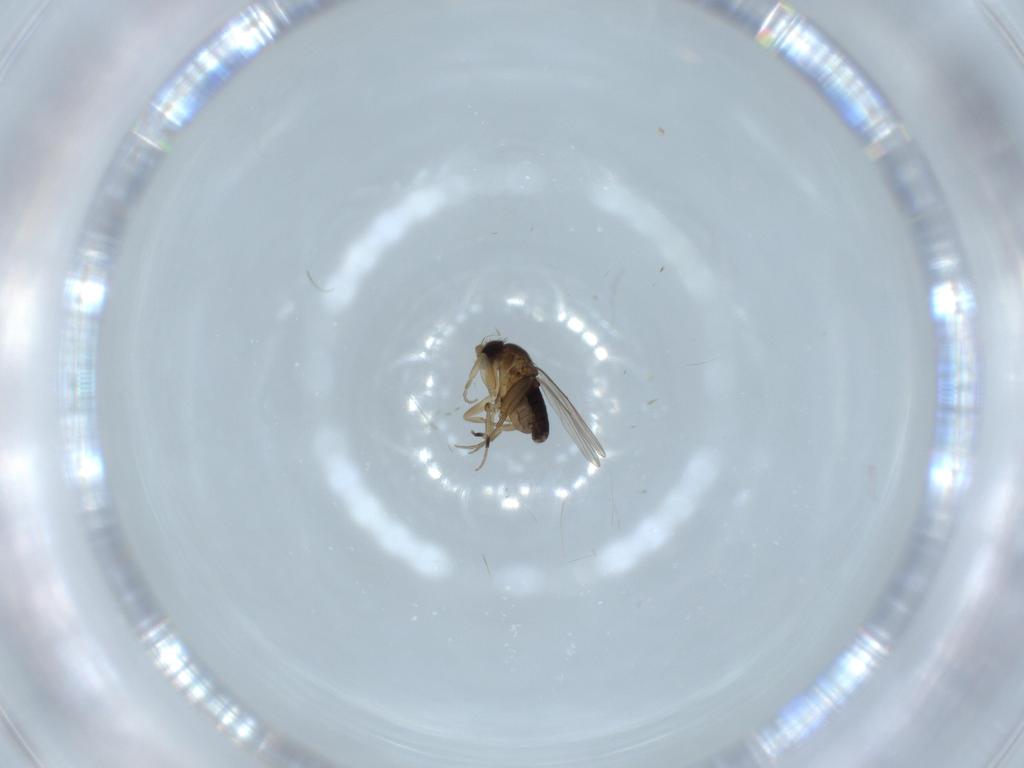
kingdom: Animalia
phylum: Arthropoda
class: Insecta
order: Diptera
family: Phoridae
